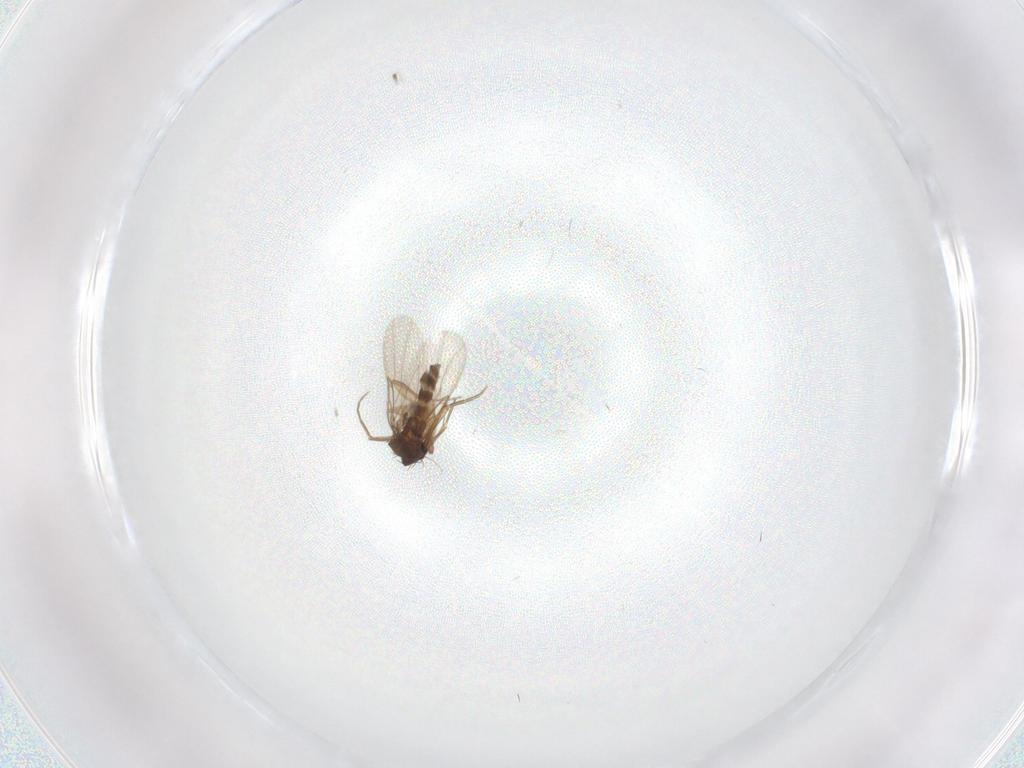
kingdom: Animalia
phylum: Arthropoda
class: Insecta
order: Diptera
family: Phoridae
